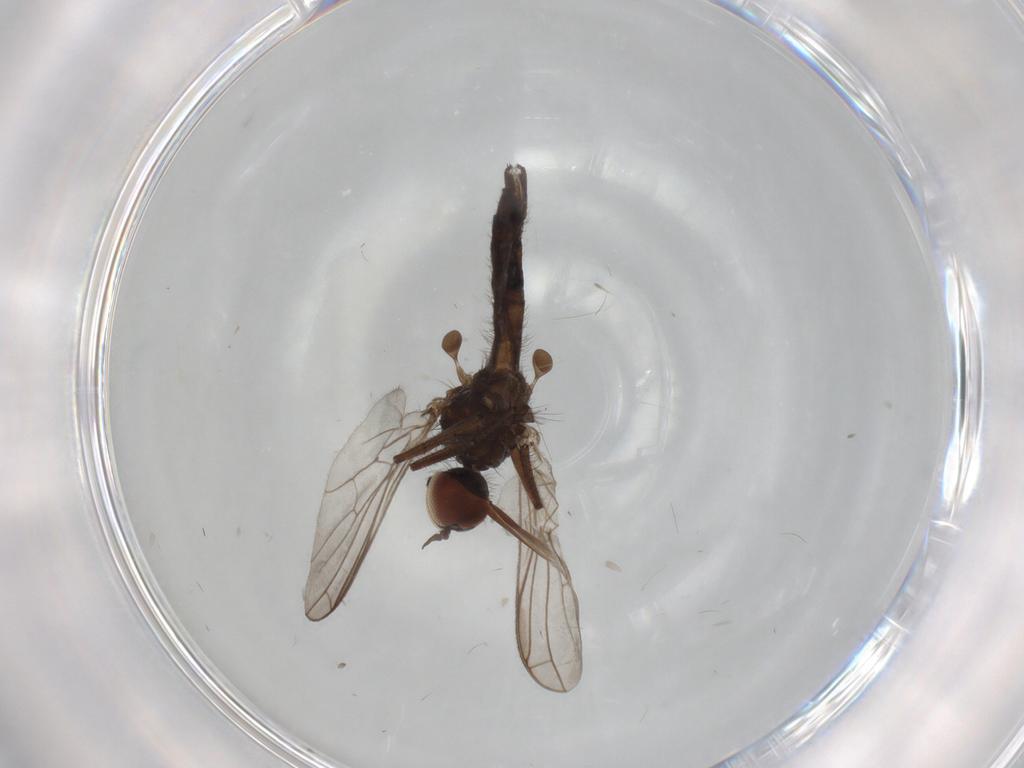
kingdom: Animalia
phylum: Arthropoda
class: Insecta
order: Diptera
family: Empididae
